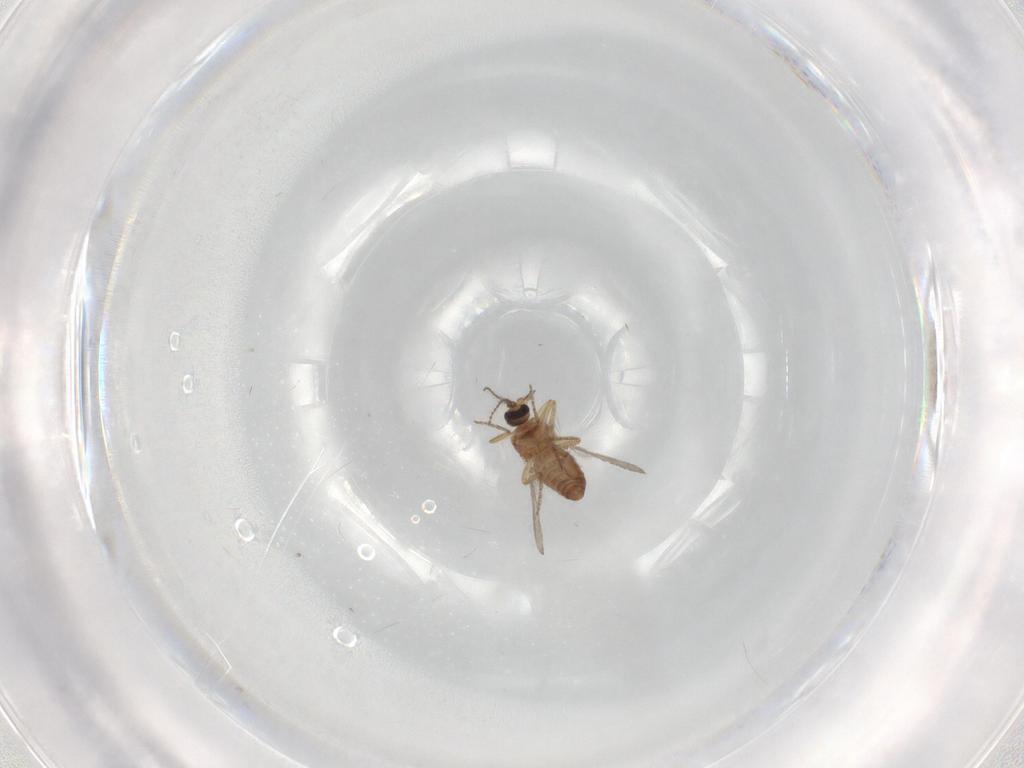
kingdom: Animalia
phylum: Arthropoda
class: Insecta
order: Diptera
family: Ceratopogonidae
